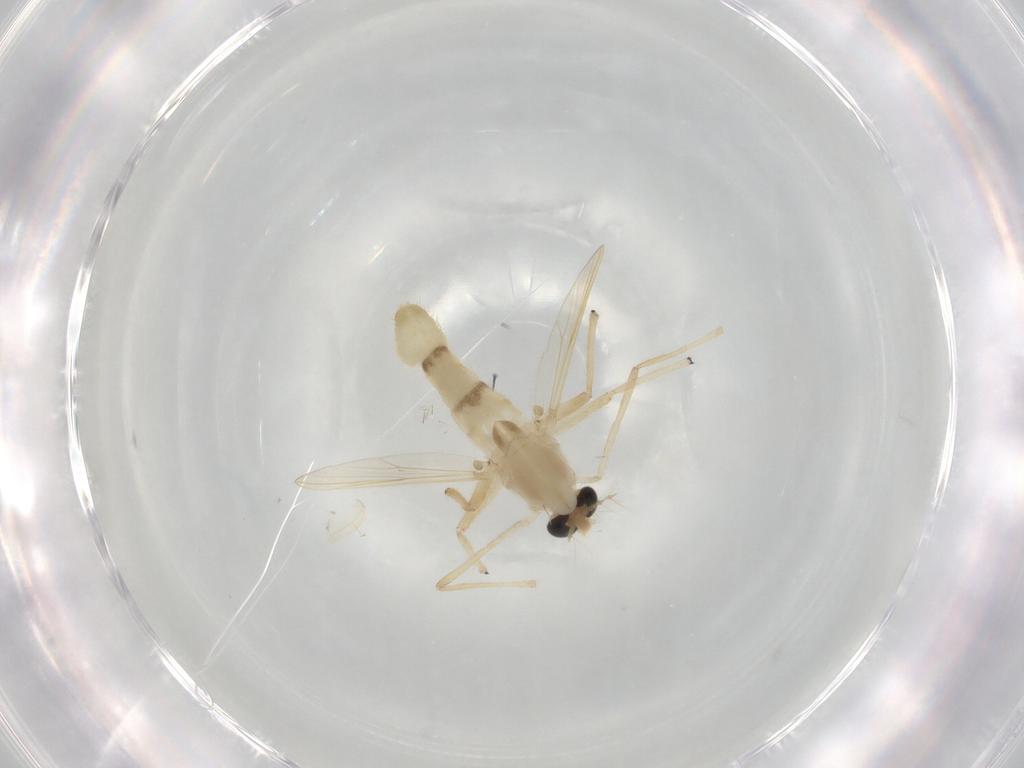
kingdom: Animalia
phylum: Arthropoda
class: Insecta
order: Diptera
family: Chironomidae
